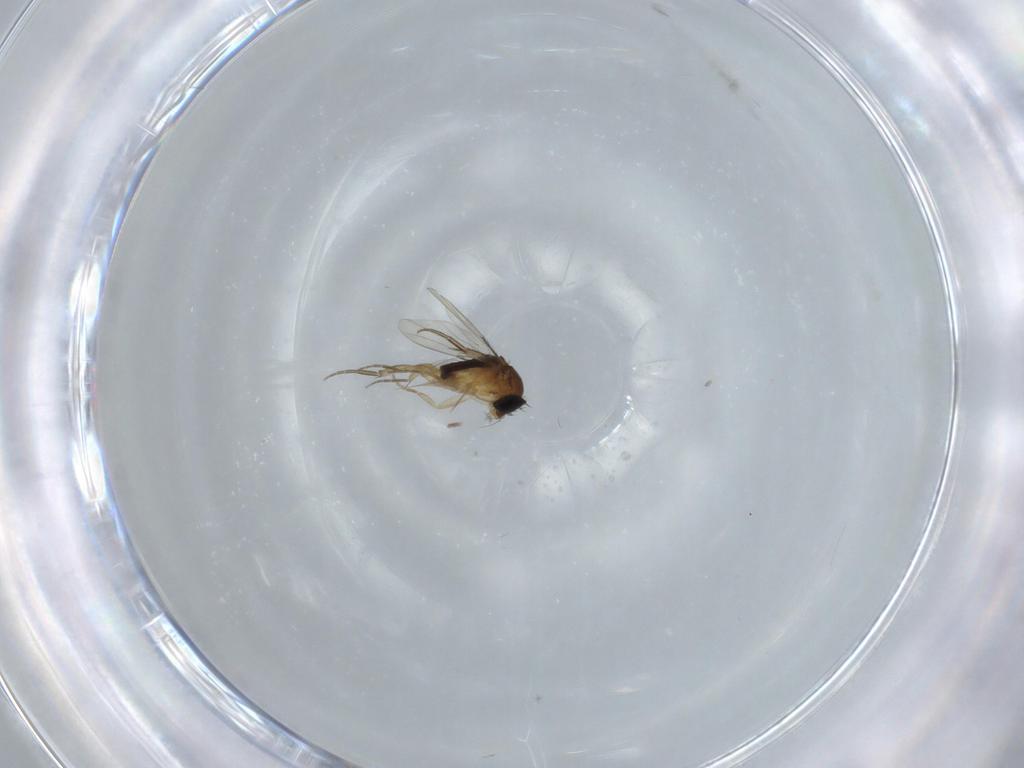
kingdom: Animalia
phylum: Arthropoda
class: Insecta
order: Diptera
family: Phoridae
